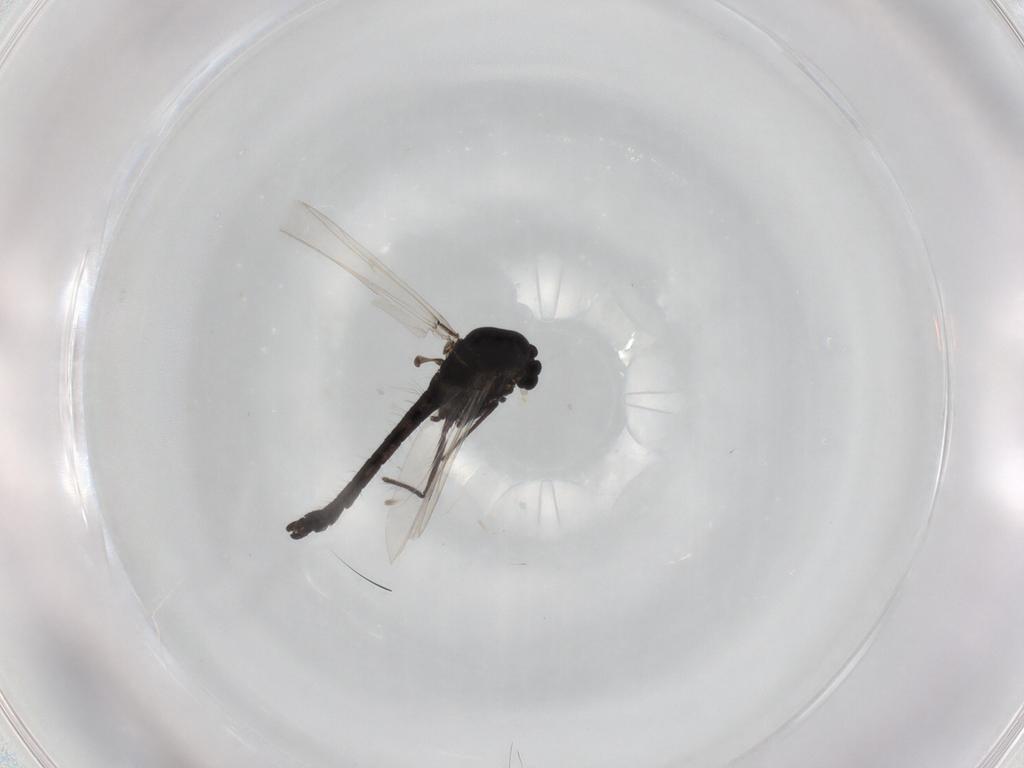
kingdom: Animalia
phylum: Arthropoda
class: Insecta
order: Diptera
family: Chironomidae
